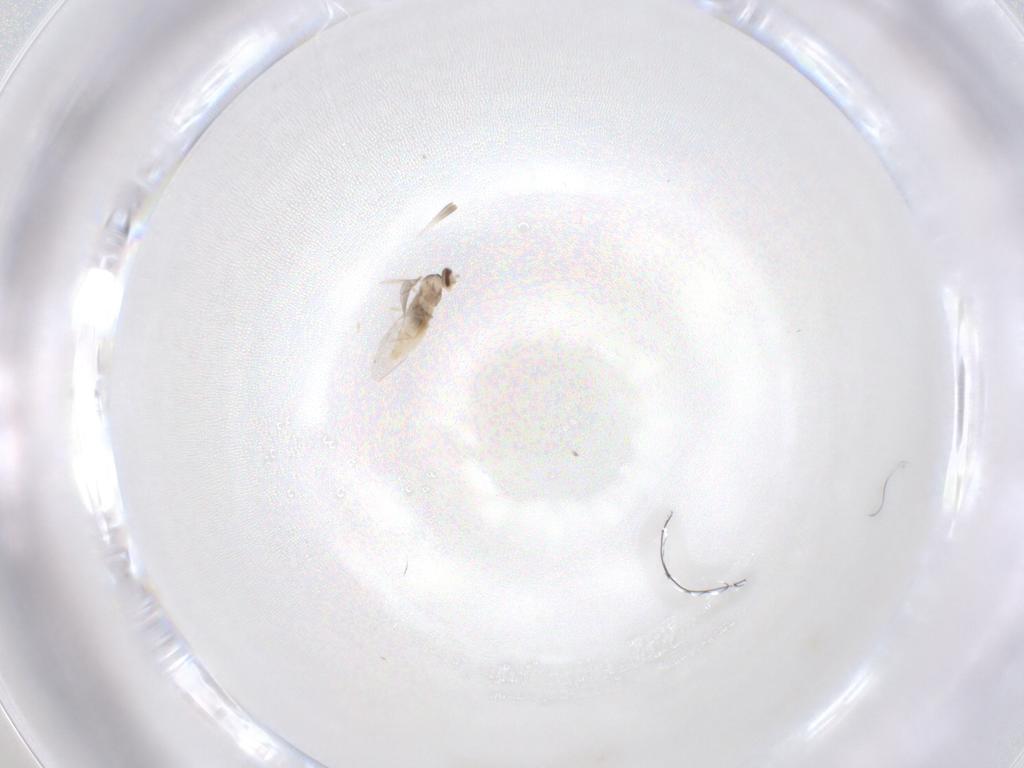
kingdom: Animalia
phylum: Arthropoda
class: Insecta
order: Diptera
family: Cecidomyiidae
